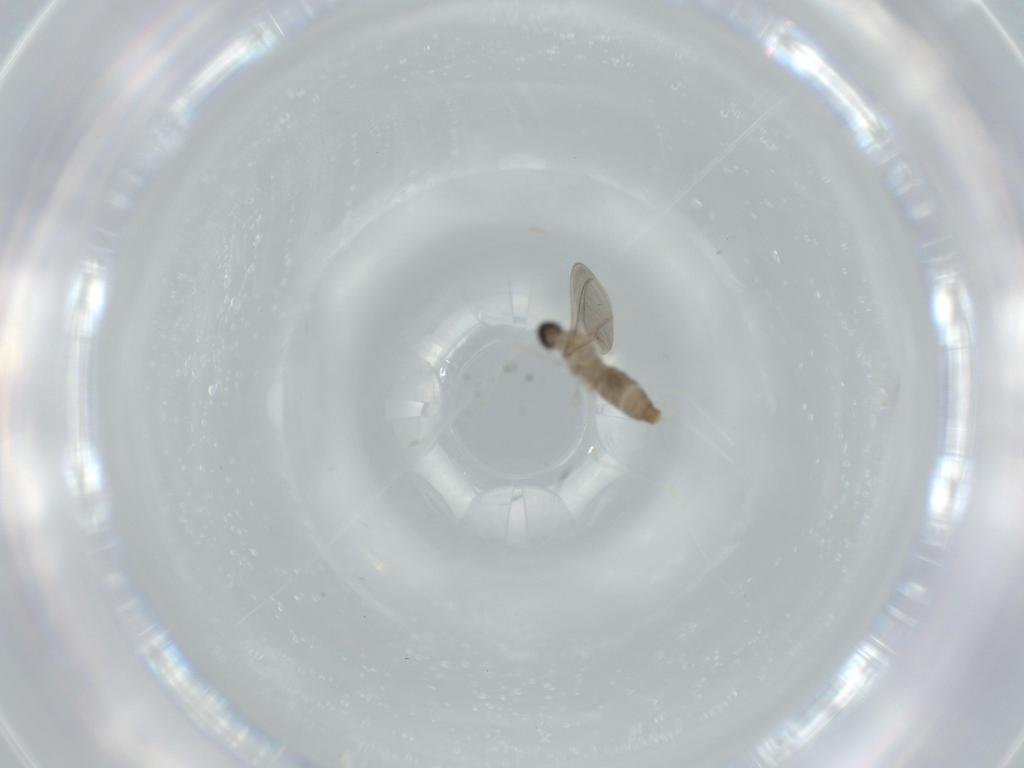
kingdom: Animalia
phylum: Arthropoda
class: Insecta
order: Diptera
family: Cecidomyiidae
